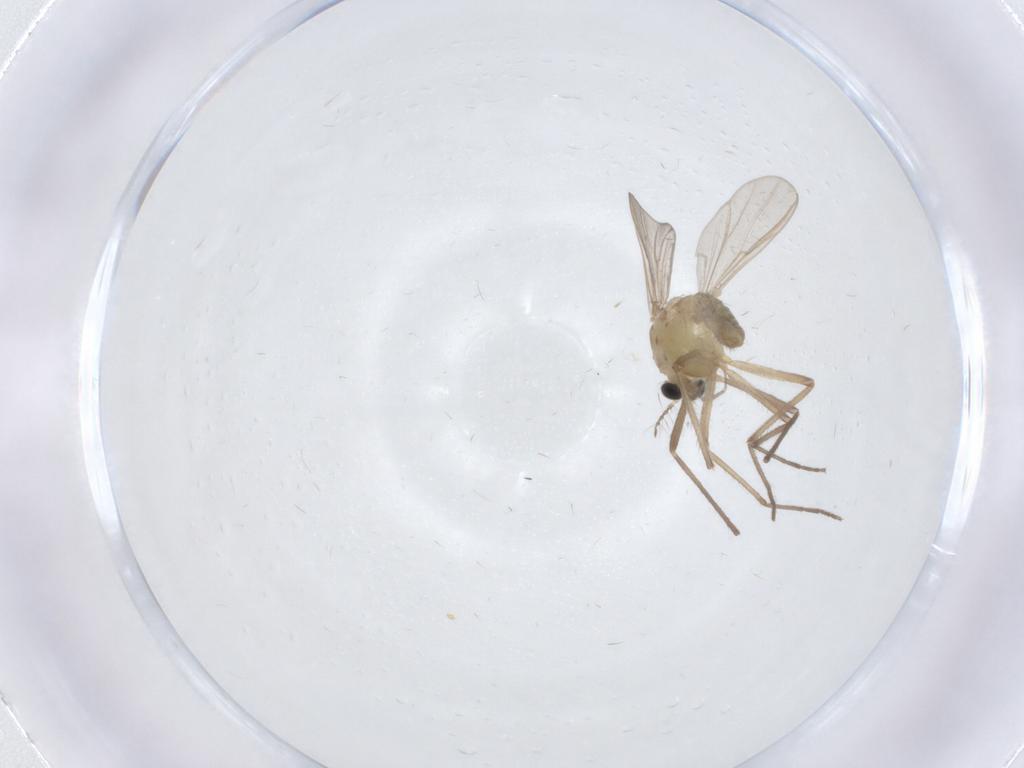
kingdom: Animalia
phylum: Arthropoda
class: Insecta
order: Diptera
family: Chironomidae
